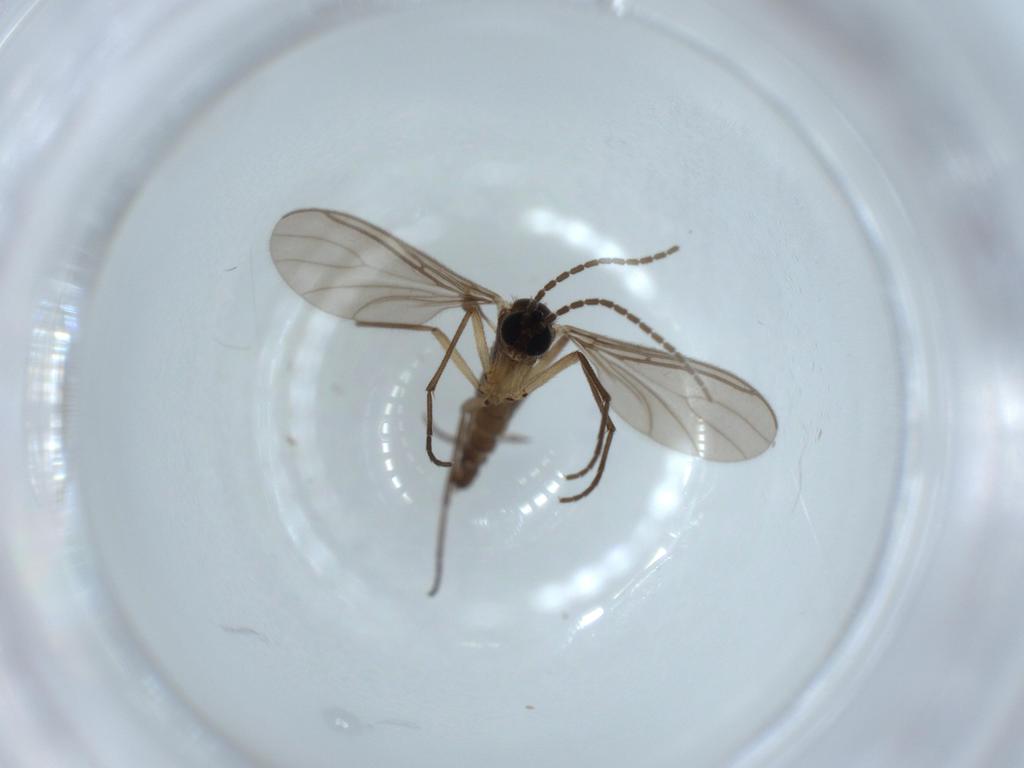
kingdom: Animalia
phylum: Arthropoda
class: Insecta
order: Diptera
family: Sciaridae
